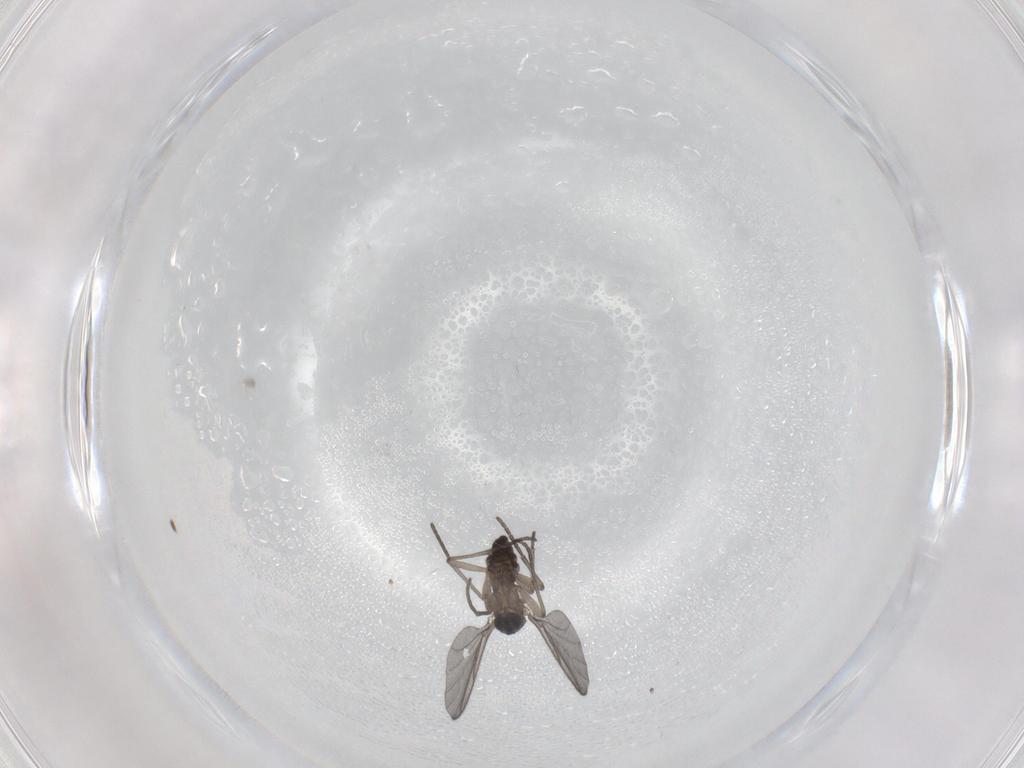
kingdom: Animalia
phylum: Arthropoda
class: Insecta
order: Diptera
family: Sciaridae
